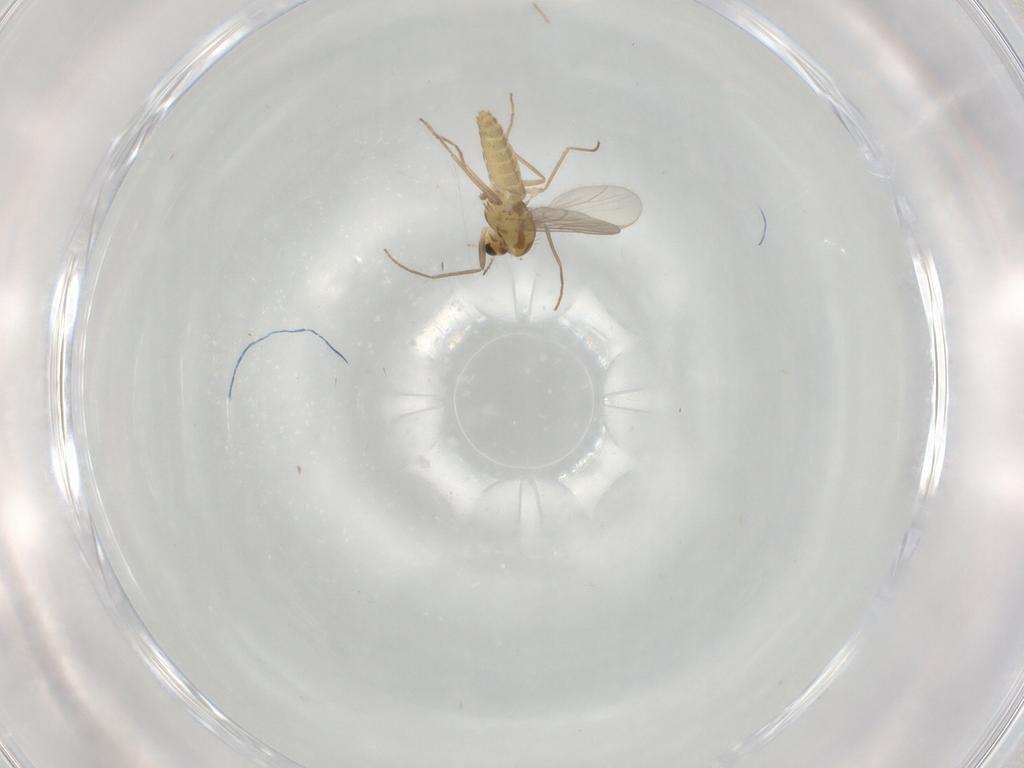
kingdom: Animalia
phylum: Arthropoda
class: Insecta
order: Diptera
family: Chironomidae
